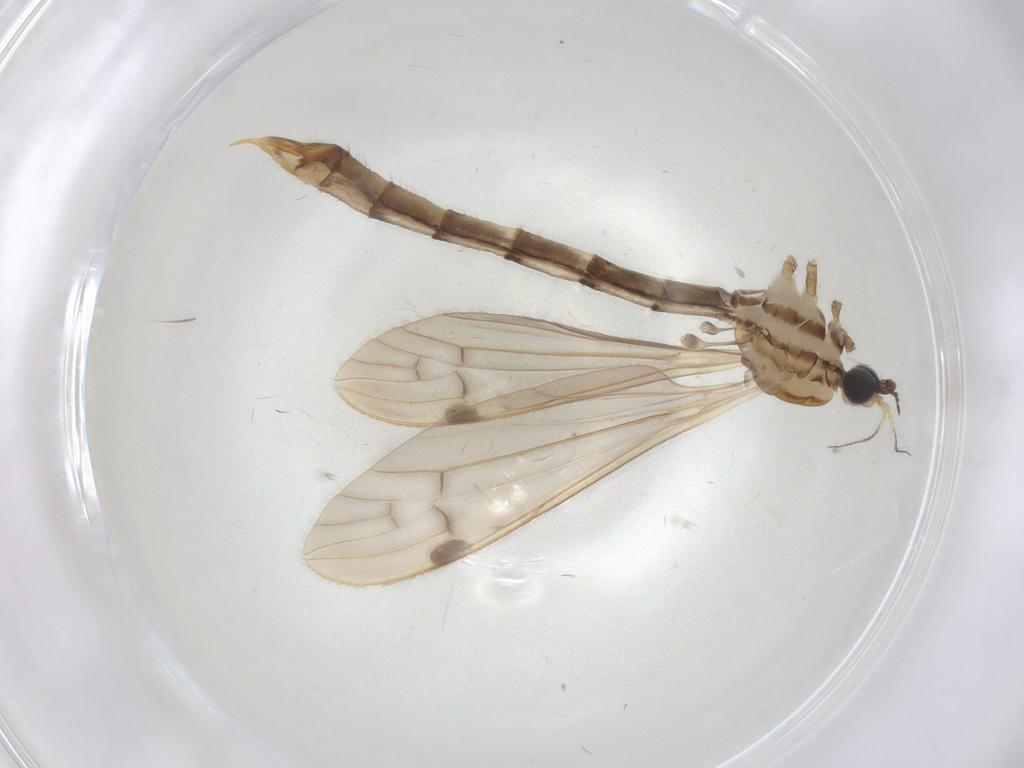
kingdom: Animalia
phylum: Arthropoda
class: Insecta
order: Diptera
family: Limoniidae
